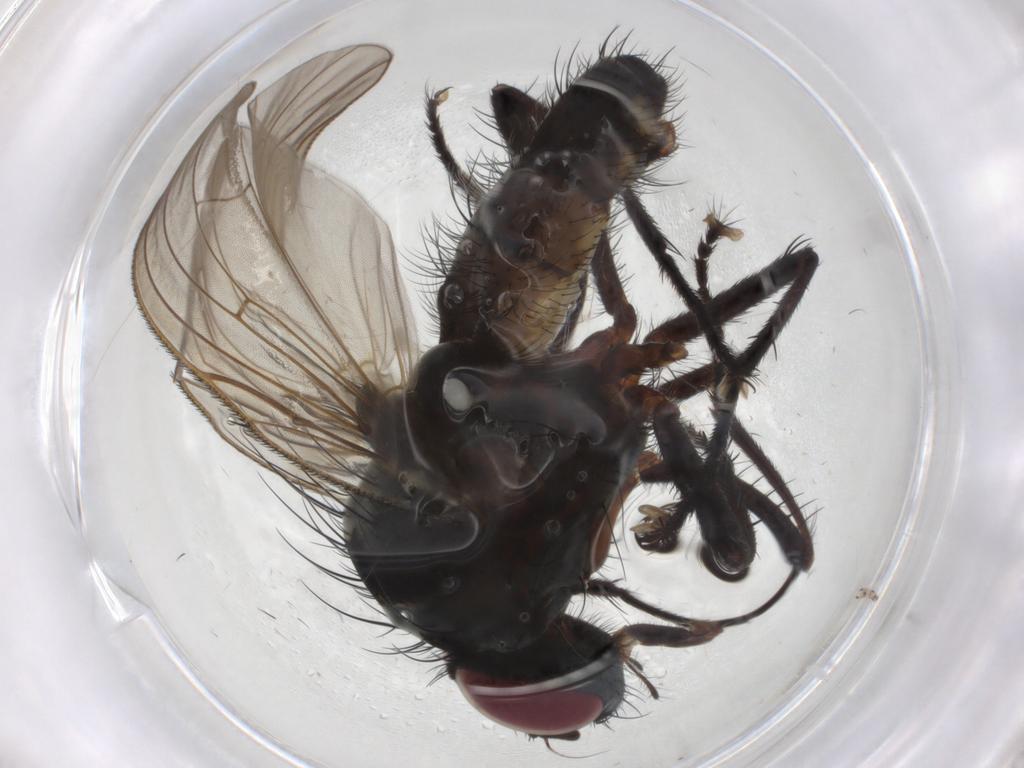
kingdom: Animalia
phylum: Arthropoda
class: Insecta
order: Diptera
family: Anthomyiidae
